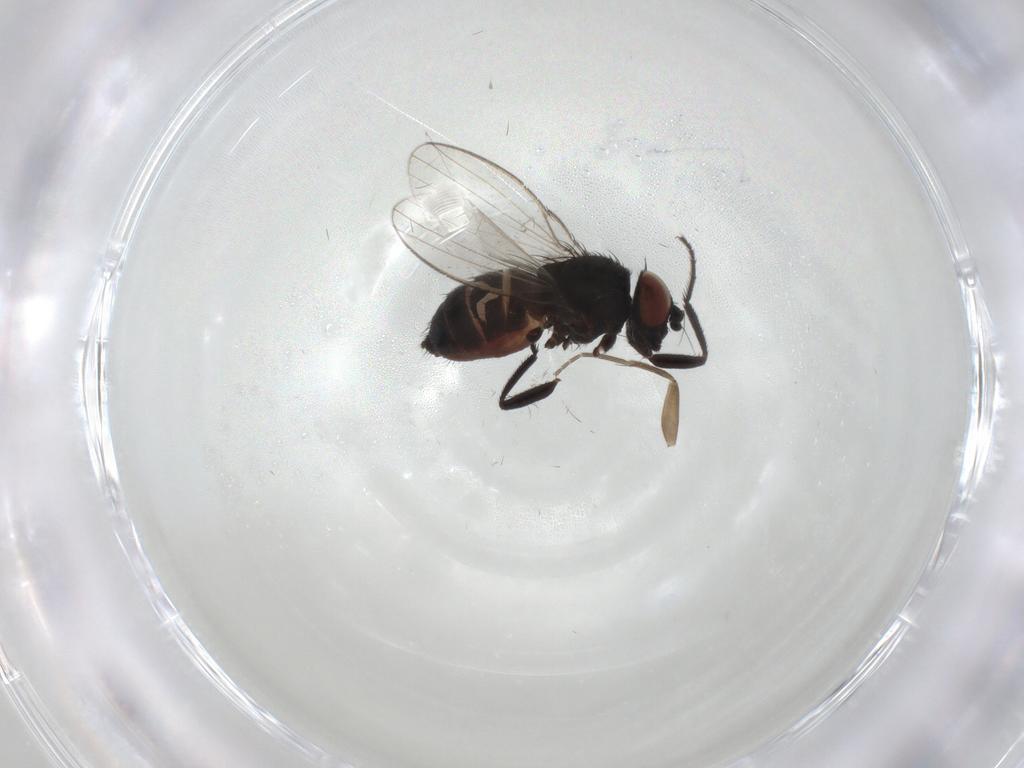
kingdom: Animalia
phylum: Arthropoda
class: Insecta
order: Diptera
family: Milichiidae
